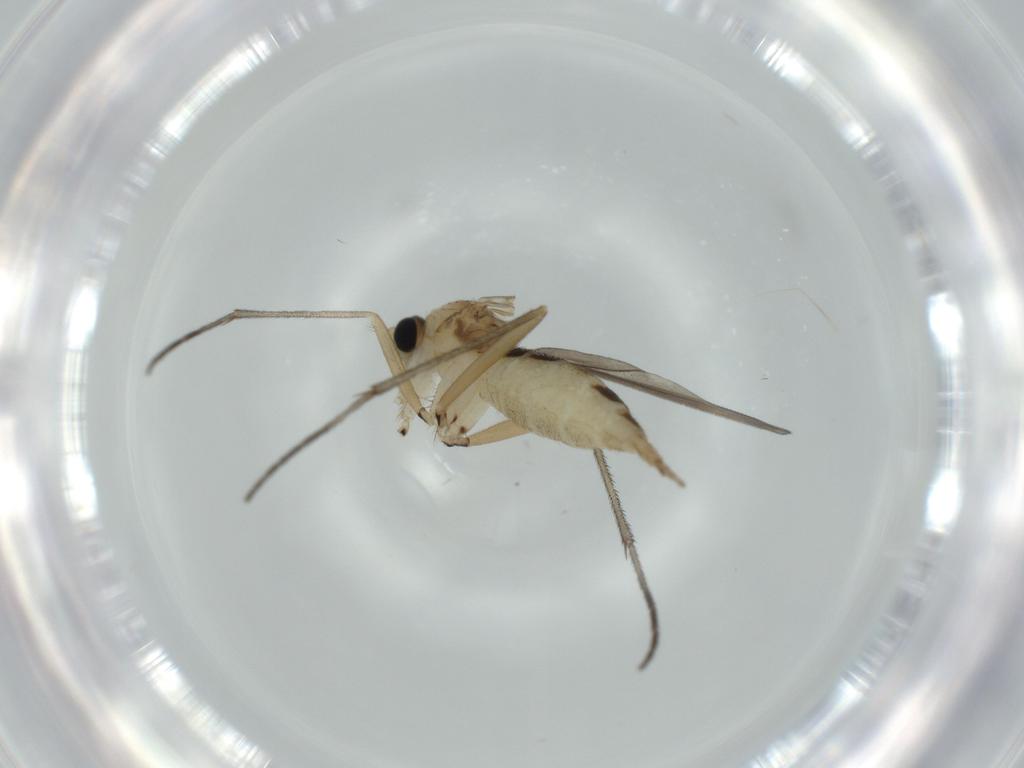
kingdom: Animalia
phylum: Arthropoda
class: Insecta
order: Diptera
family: Sciaridae
